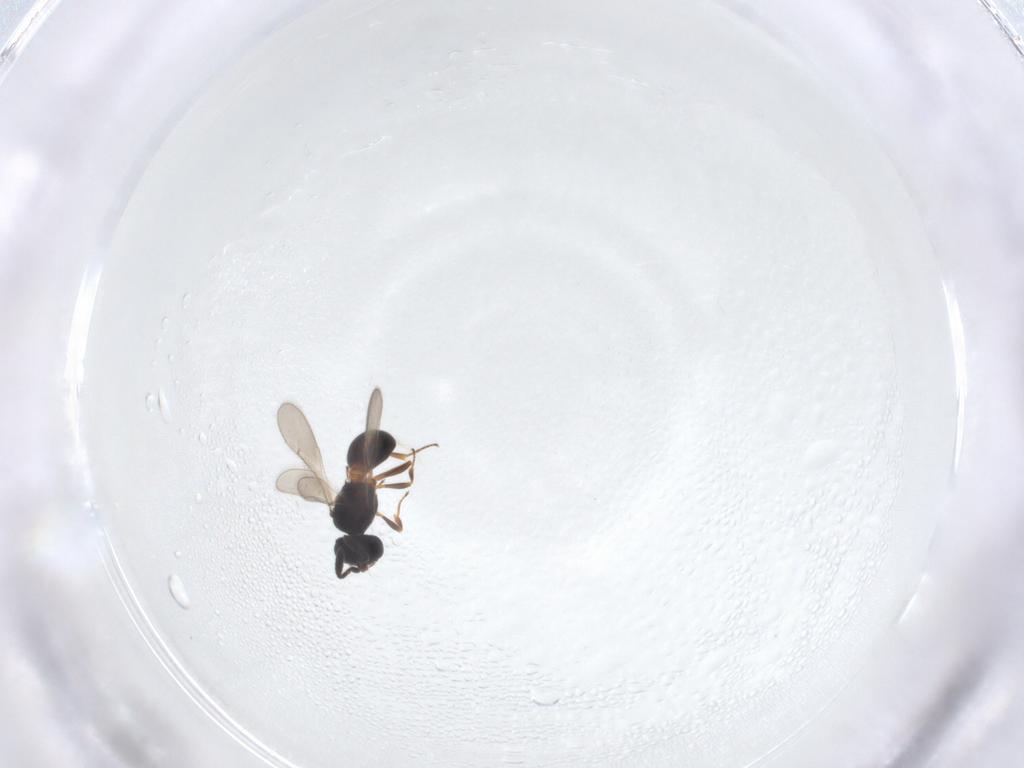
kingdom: Animalia
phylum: Arthropoda
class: Insecta
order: Hymenoptera
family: Scelionidae
